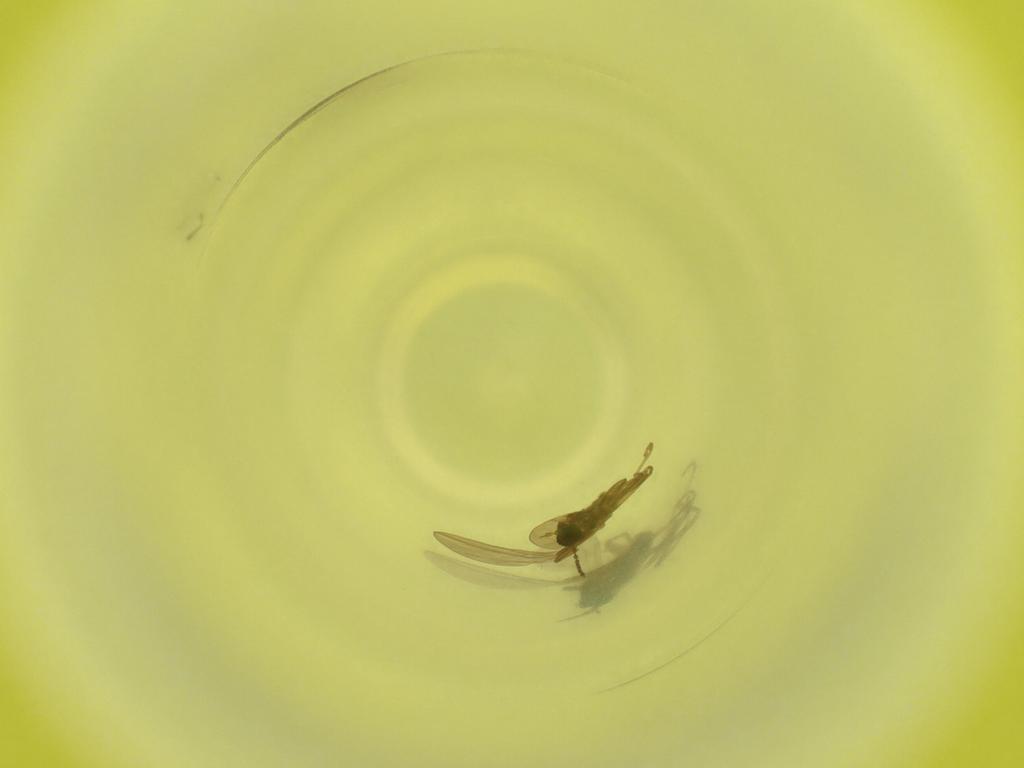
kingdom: Animalia
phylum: Arthropoda
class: Insecta
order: Diptera
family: Cecidomyiidae
